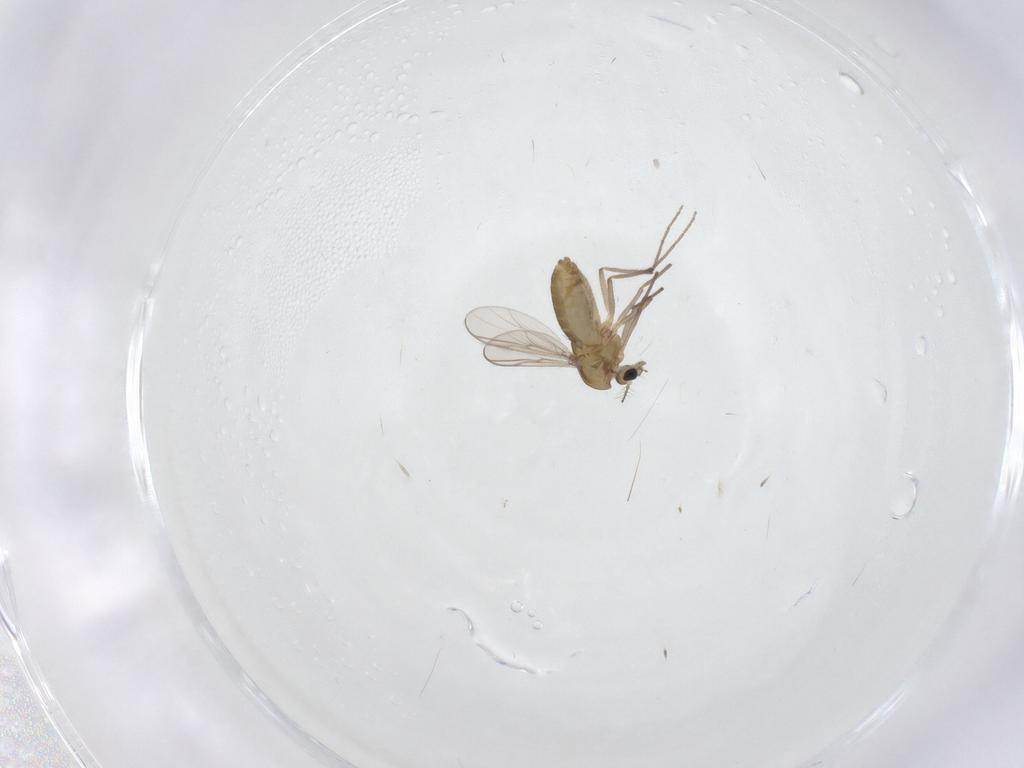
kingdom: Animalia
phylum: Arthropoda
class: Insecta
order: Diptera
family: Chironomidae
